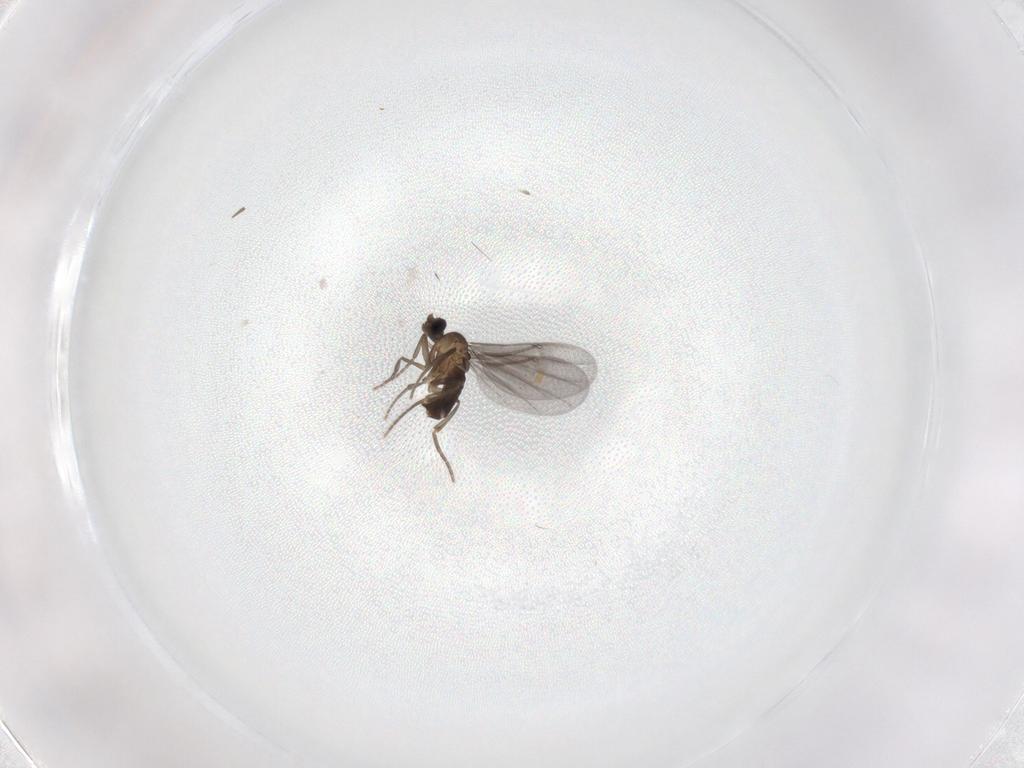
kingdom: Animalia
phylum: Arthropoda
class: Insecta
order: Diptera
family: Phoridae
